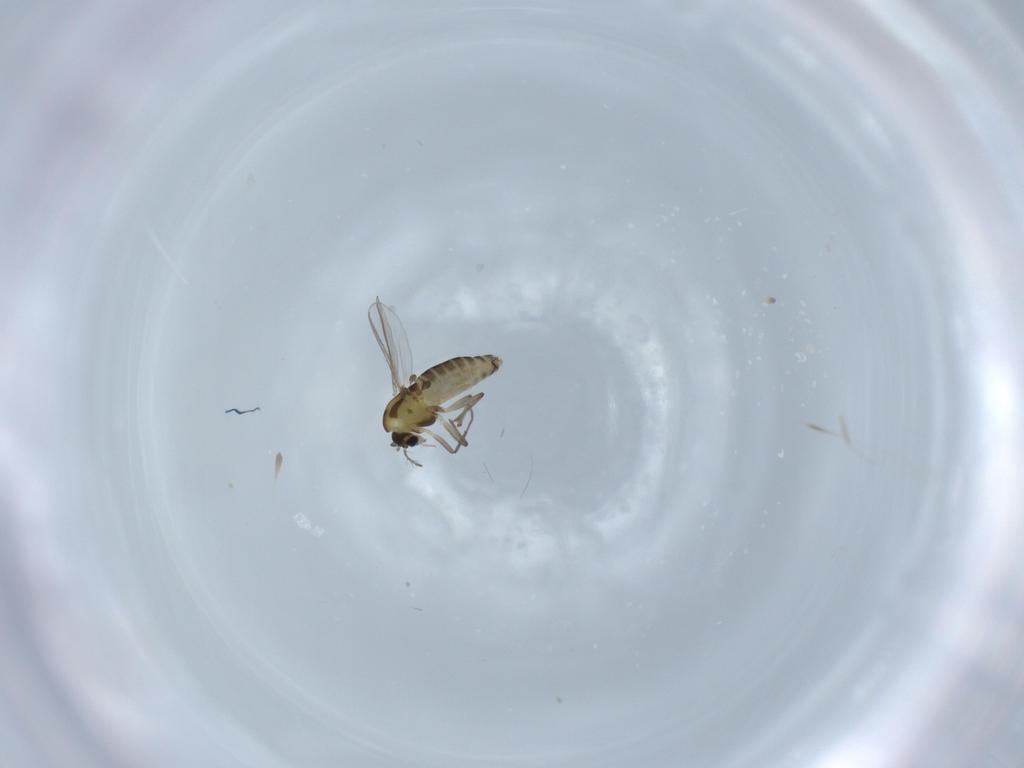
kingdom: Animalia
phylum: Arthropoda
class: Insecta
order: Diptera
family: Chironomidae
